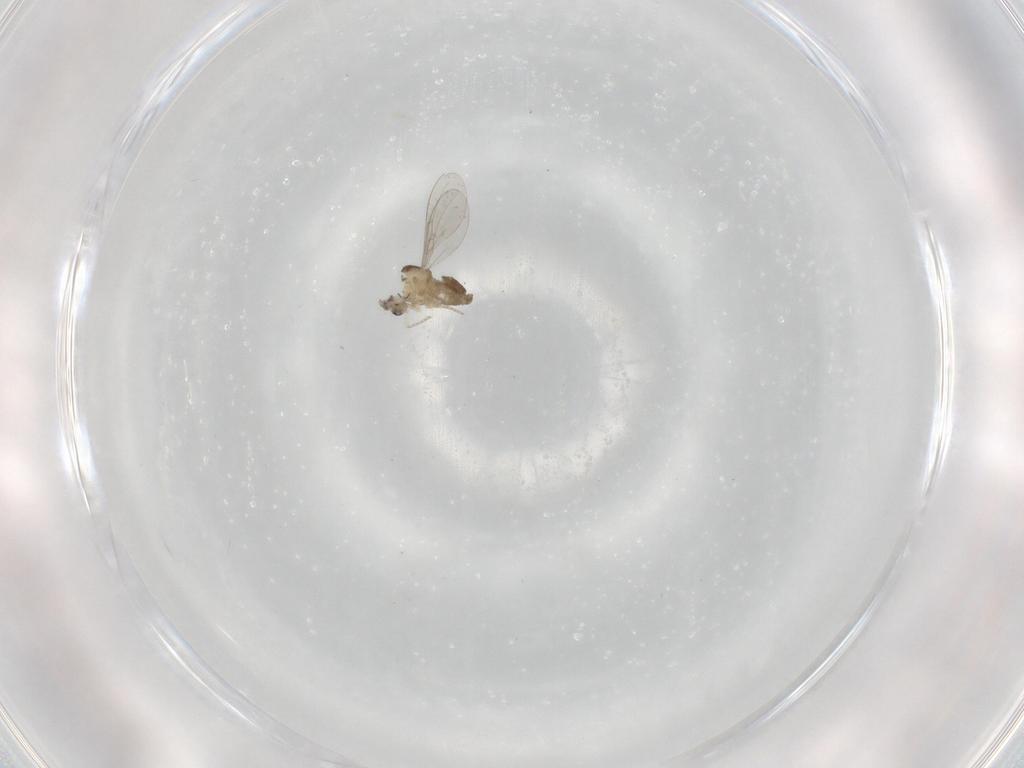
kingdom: Animalia
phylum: Arthropoda
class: Insecta
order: Diptera
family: Cecidomyiidae
